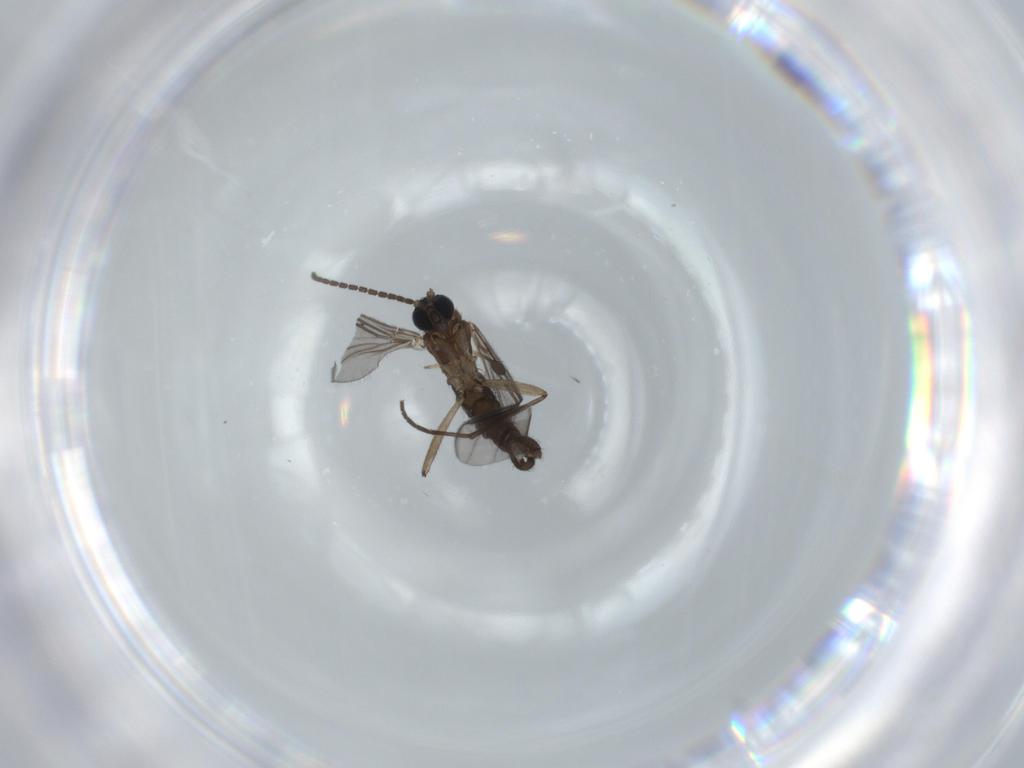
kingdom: Animalia
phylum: Arthropoda
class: Insecta
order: Diptera
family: Sciaridae
